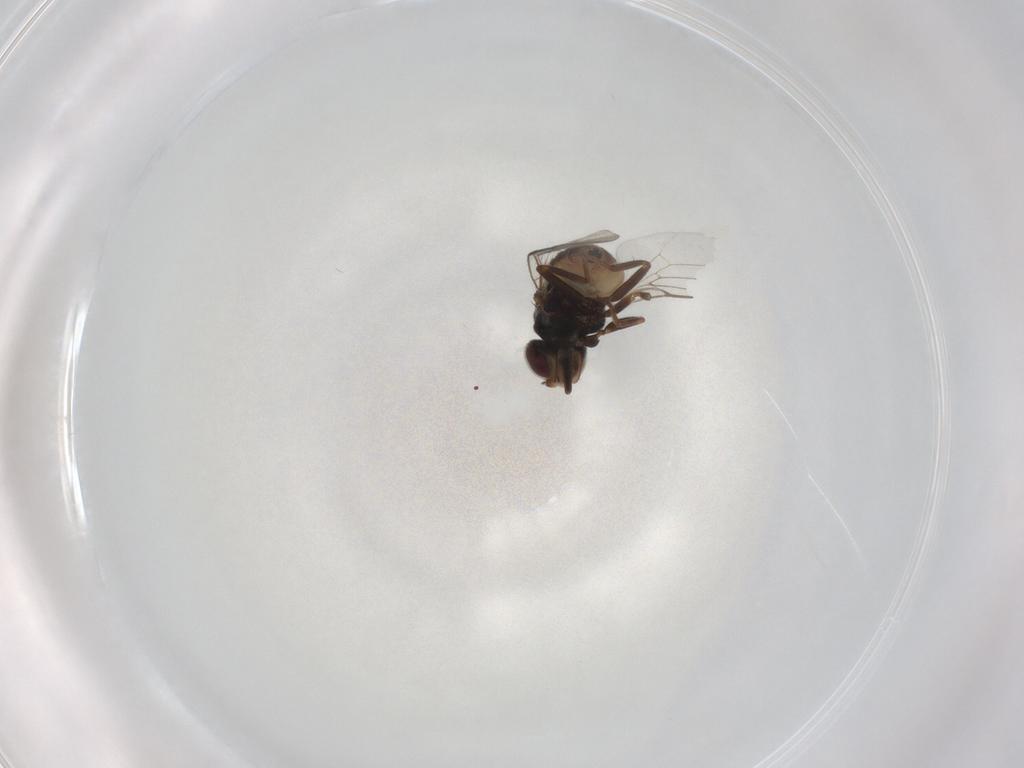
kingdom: Animalia
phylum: Arthropoda
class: Insecta
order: Diptera
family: Chloropidae
